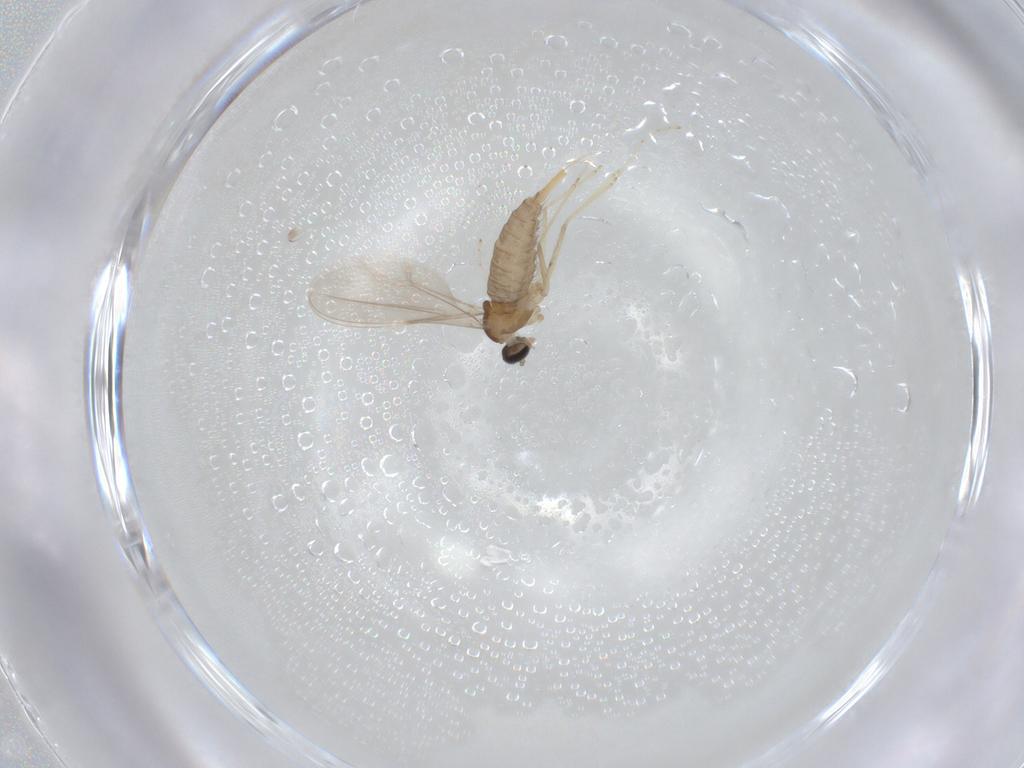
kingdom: Animalia
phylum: Arthropoda
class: Insecta
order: Diptera
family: Cecidomyiidae
